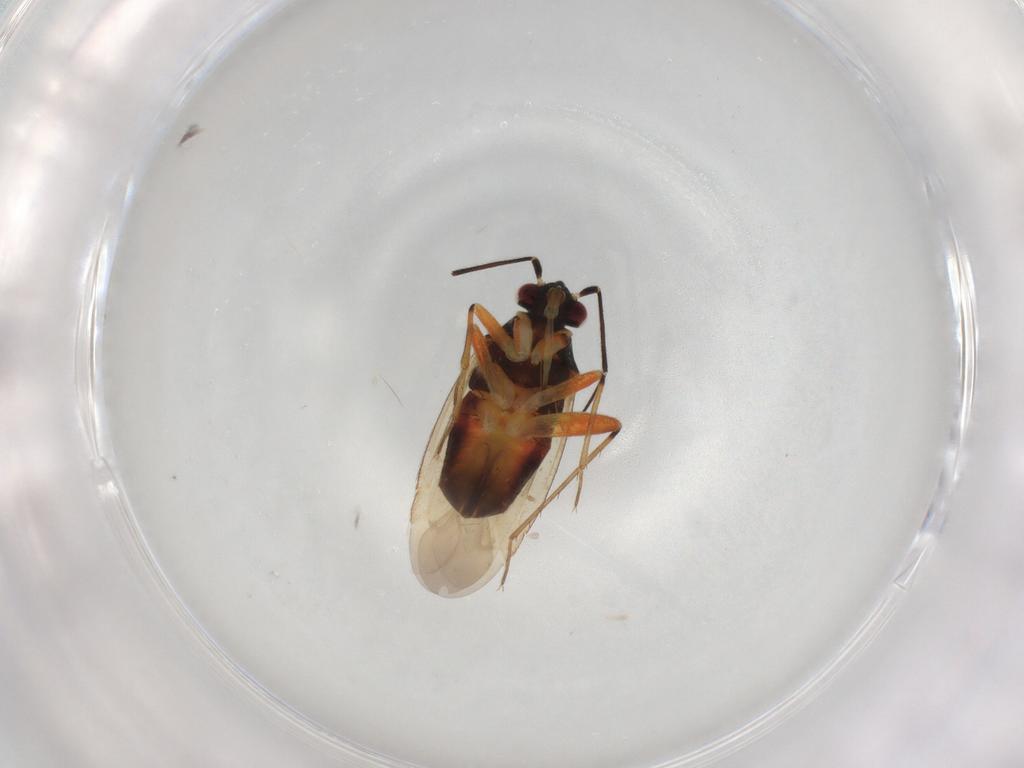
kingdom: Animalia
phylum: Arthropoda
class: Insecta
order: Hemiptera
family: Miridae
